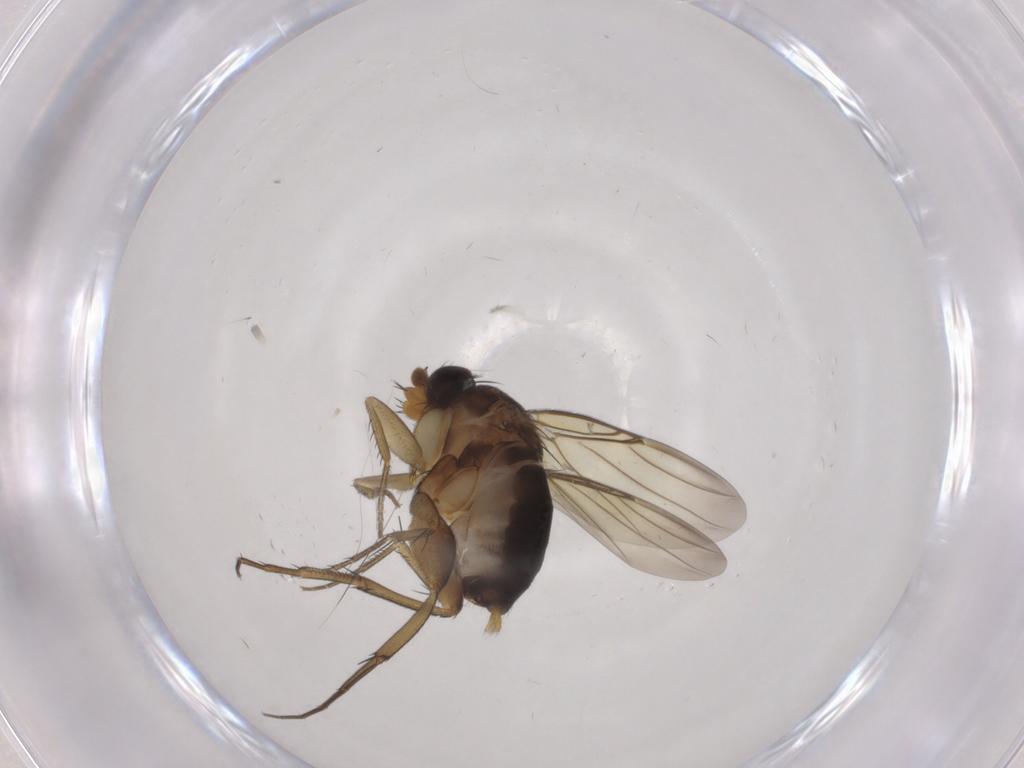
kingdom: Animalia
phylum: Arthropoda
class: Insecta
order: Diptera
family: Phoridae
